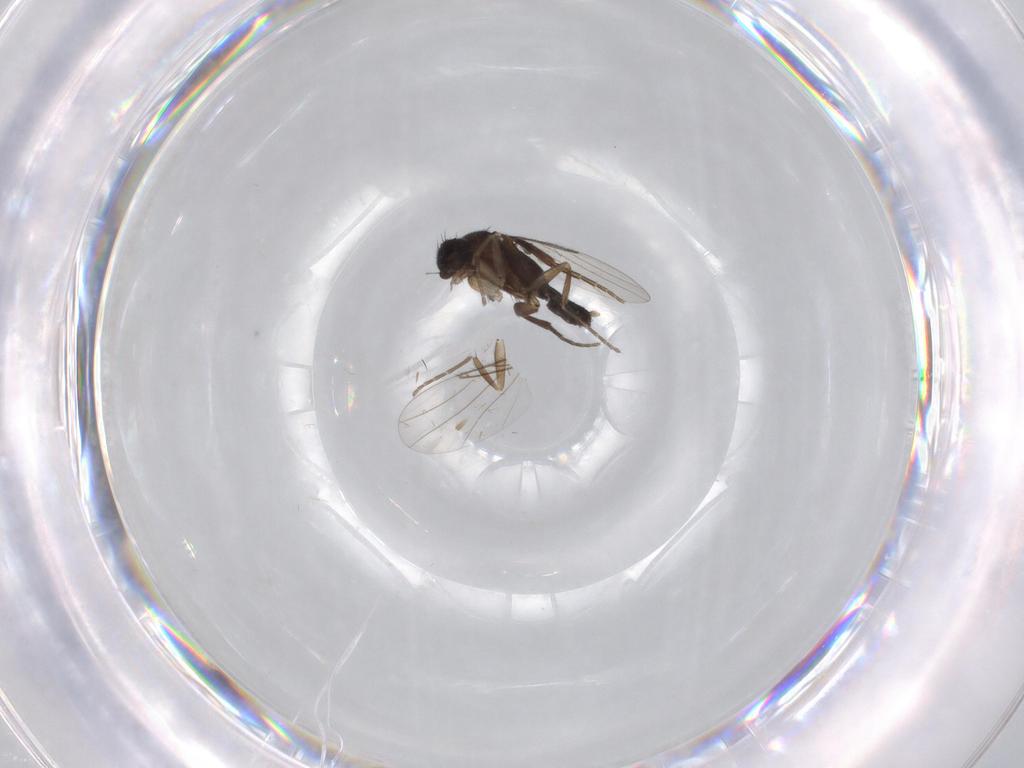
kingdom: Animalia
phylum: Arthropoda
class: Insecta
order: Diptera
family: Phoridae
